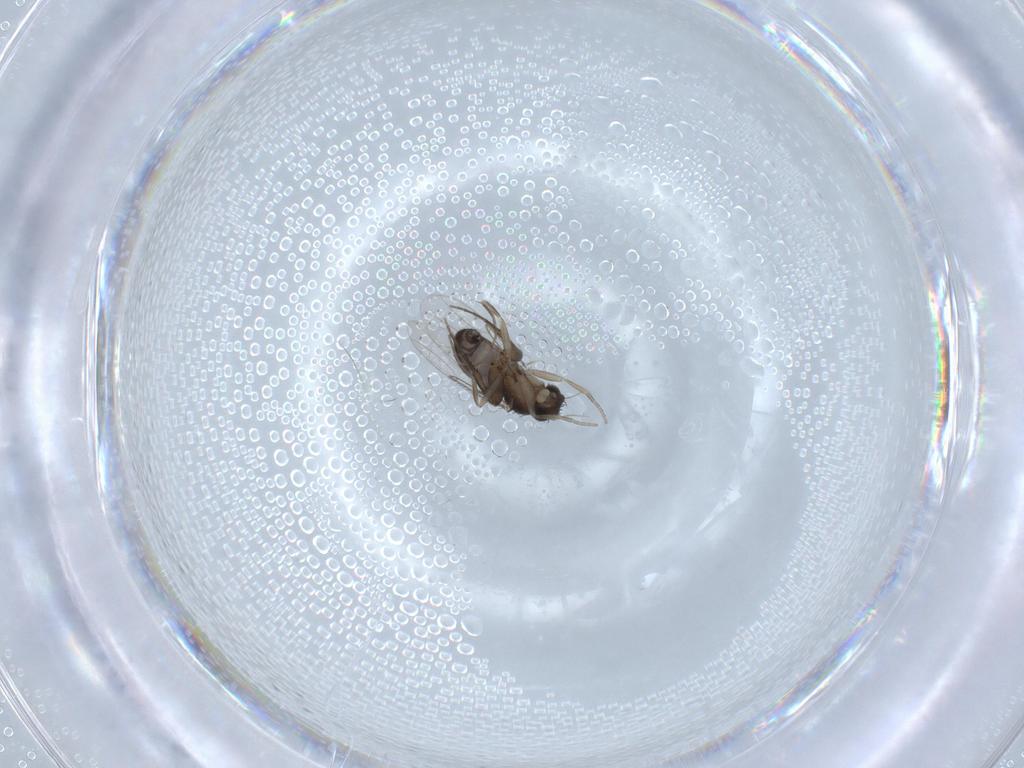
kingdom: Animalia
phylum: Arthropoda
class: Insecta
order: Diptera
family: Phoridae
